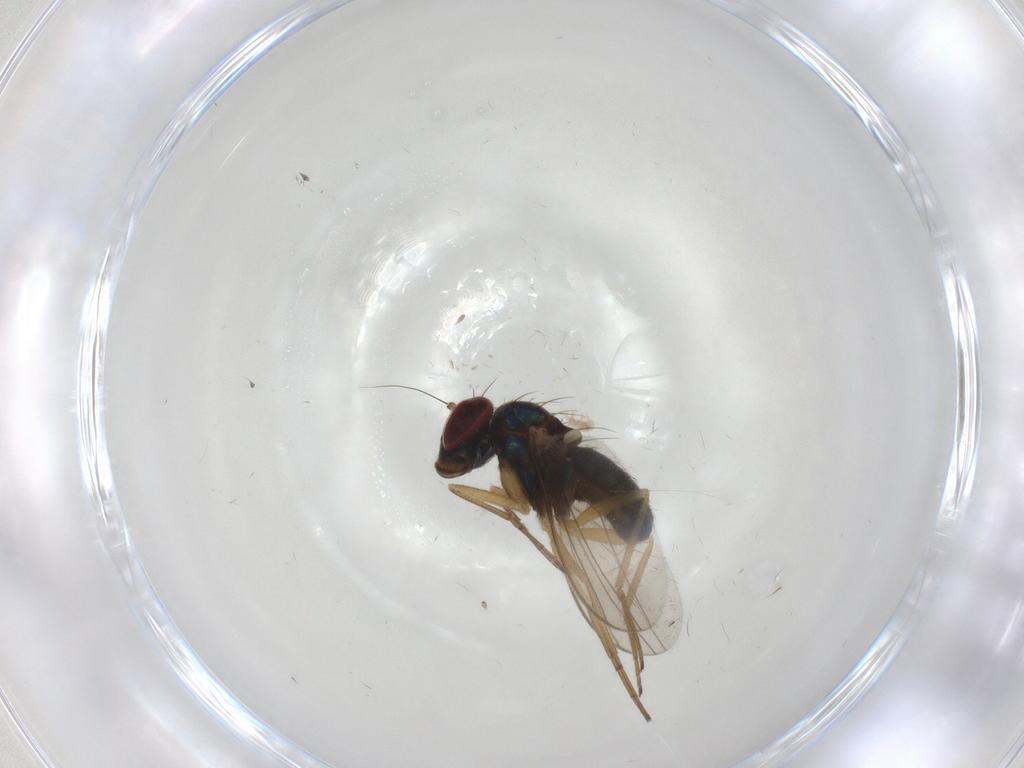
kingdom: Animalia
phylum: Arthropoda
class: Insecta
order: Diptera
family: Dolichopodidae
